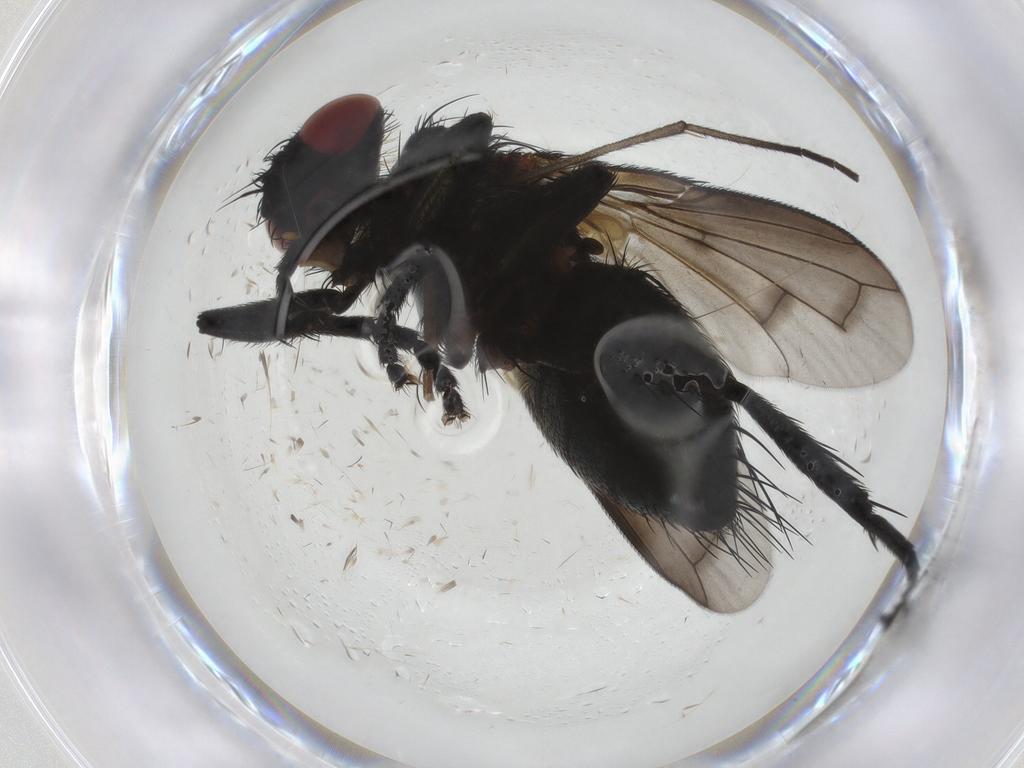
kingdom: Animalia
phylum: Arthropoda
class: Insecta
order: Diptera
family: Tachinidae
